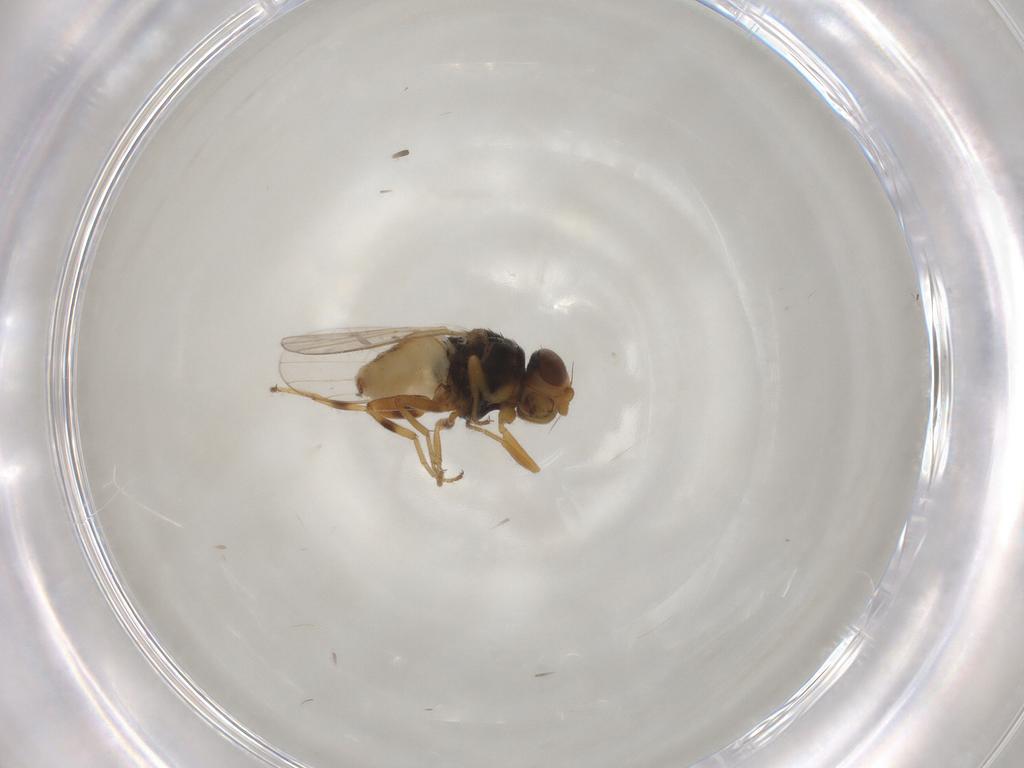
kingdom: Animalia
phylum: Arthropoda
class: Insecta
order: Diptera
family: Chloropidae
